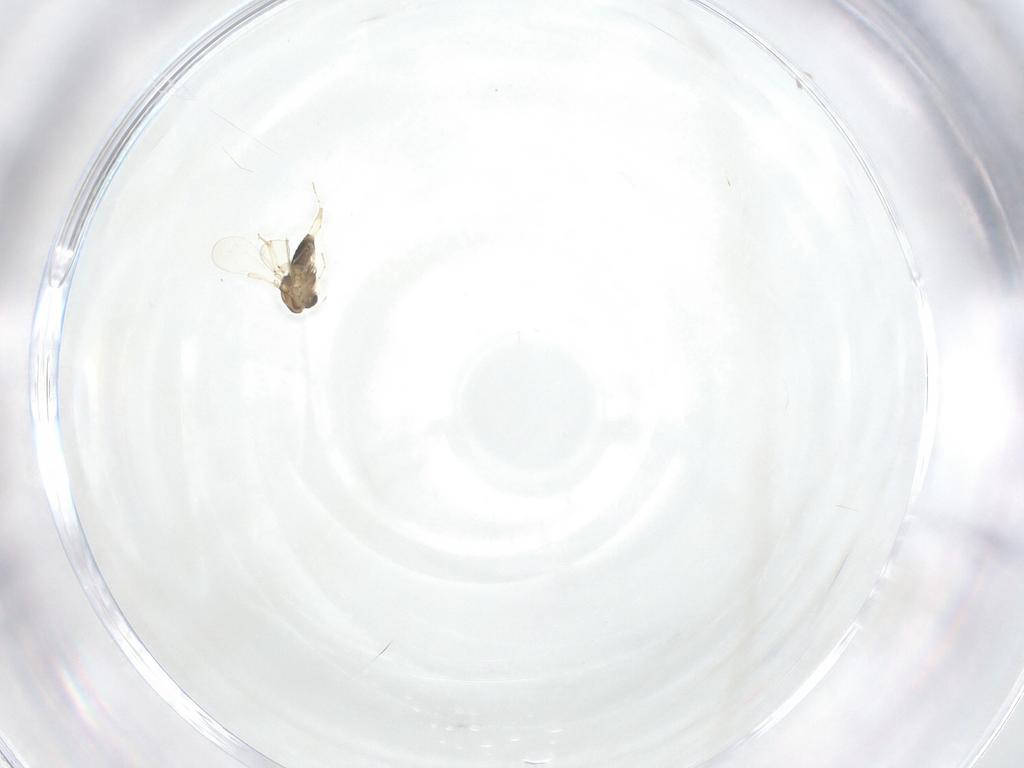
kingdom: Animalia
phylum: Arthropoda
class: Insecta
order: Diptera
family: Chironomidae
